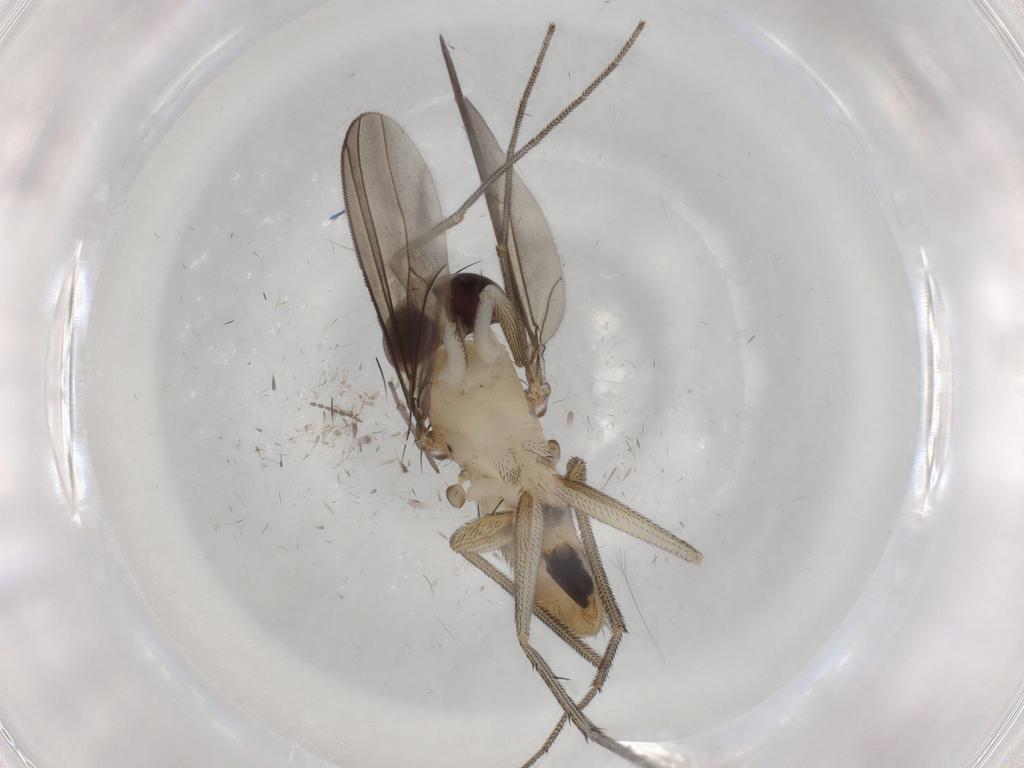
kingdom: Animalia
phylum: Arthropoda
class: Insecta
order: Diptera
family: Dolichopodidae
